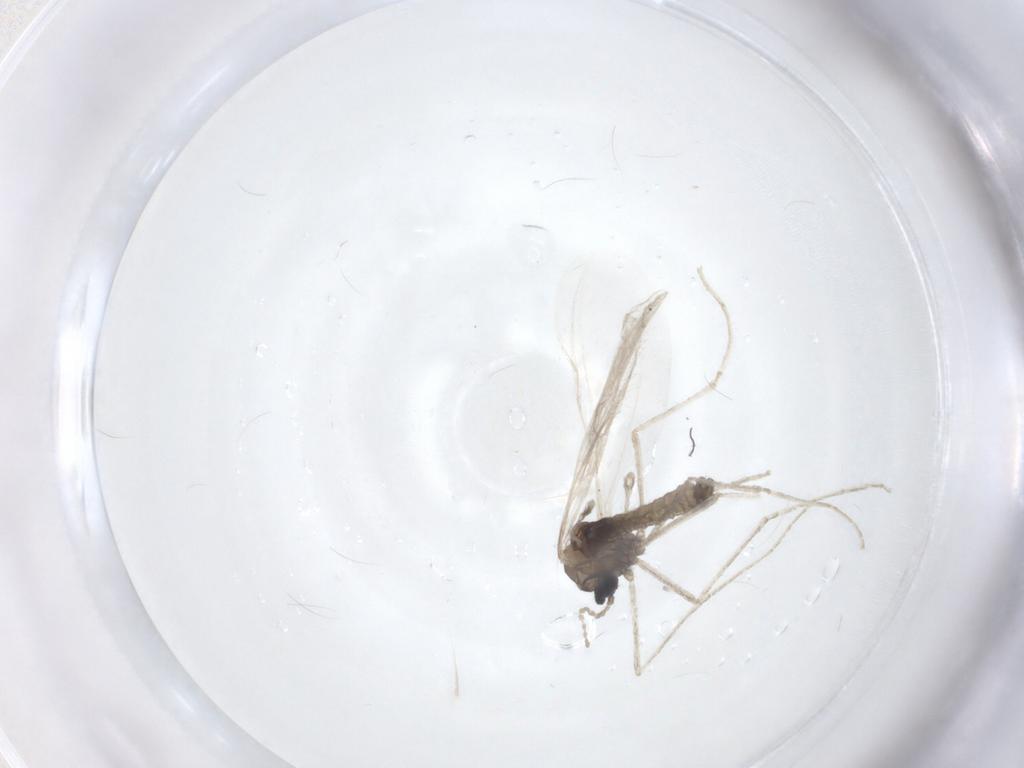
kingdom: Animalia
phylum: Arthropoda
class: Insecta
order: Diptera
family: Cecidomyiidae
